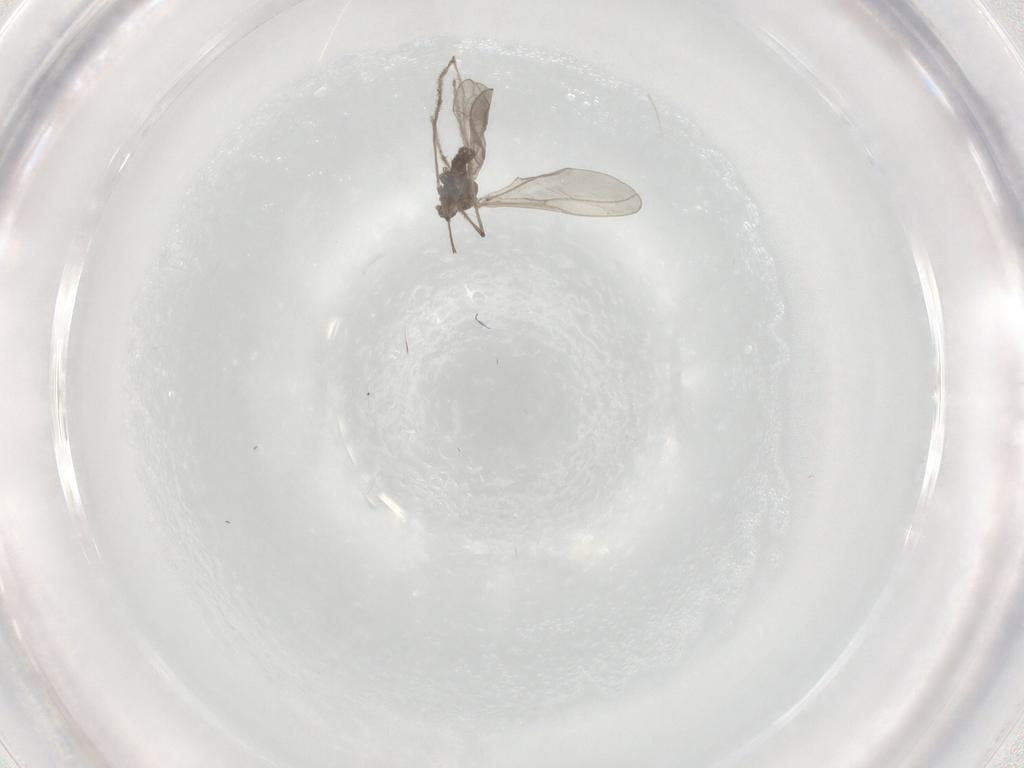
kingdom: Animalia
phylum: Arthropoda
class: Insecta
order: Diptera
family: Cecidomyiidae
